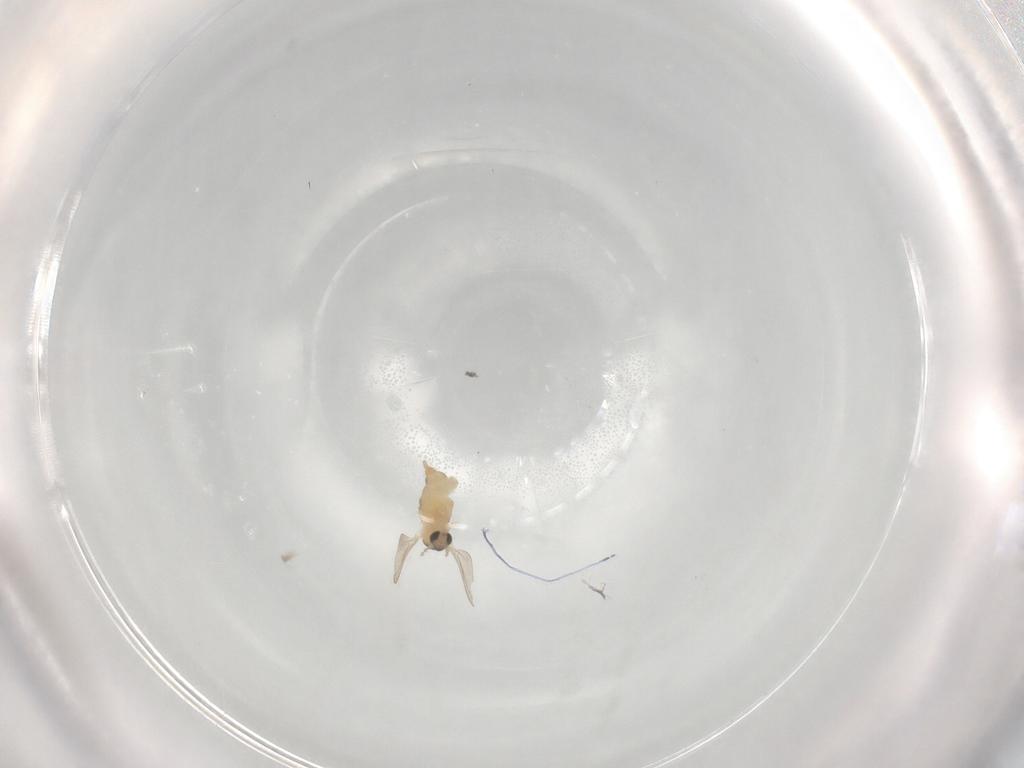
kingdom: Animalia
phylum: Arthropoda
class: Insecta
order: Diptera
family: Cecidomyiidae
